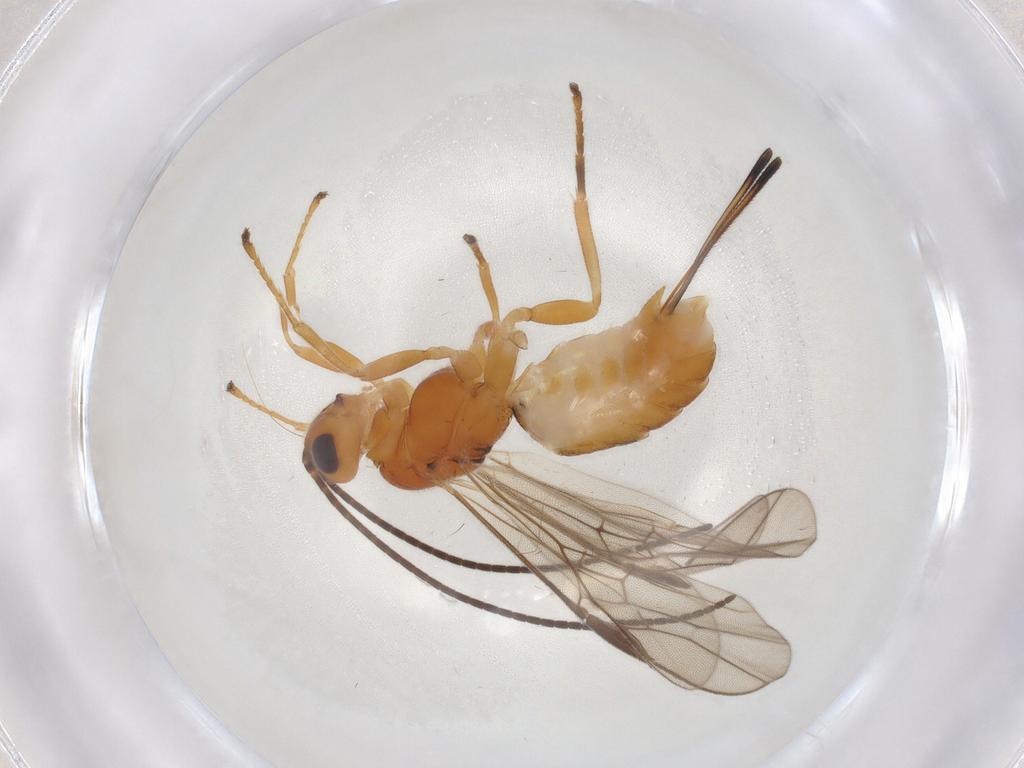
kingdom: Animalia
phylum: Arthropoda
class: Insecta
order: Hymenoptera
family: Braconidae
